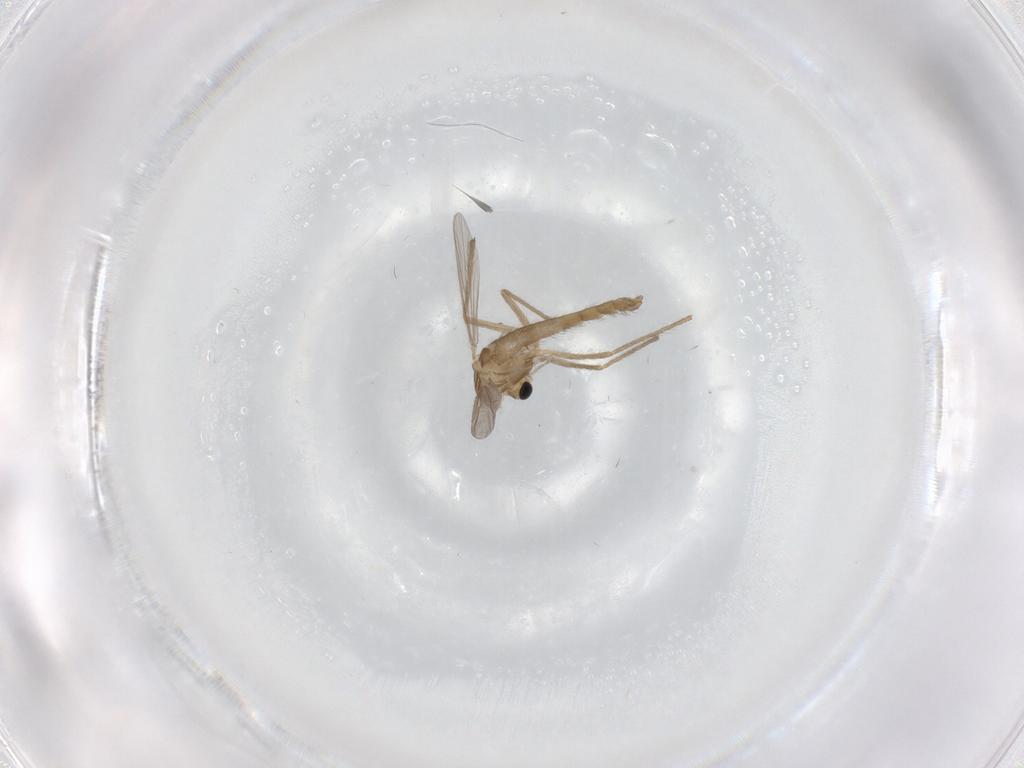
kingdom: Animalia
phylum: Arthropoda
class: Insecta
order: Diptera
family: Chironomidae
